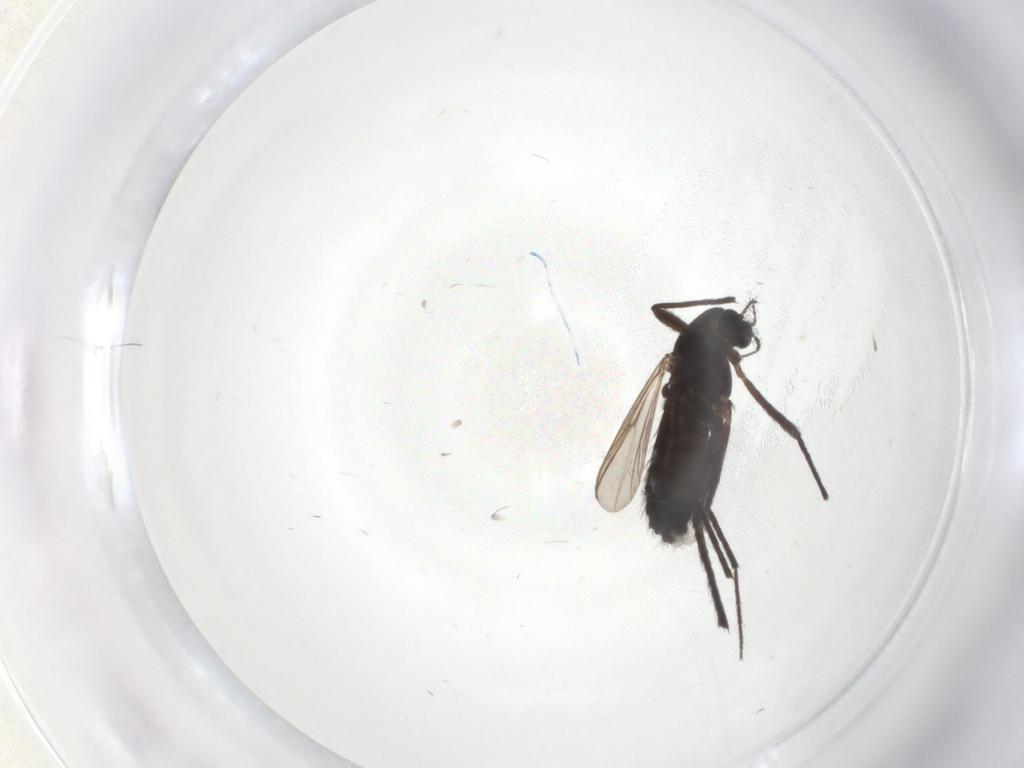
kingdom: Animalia
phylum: Arthropoda
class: Insecta
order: Diptera
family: Chironomidae
